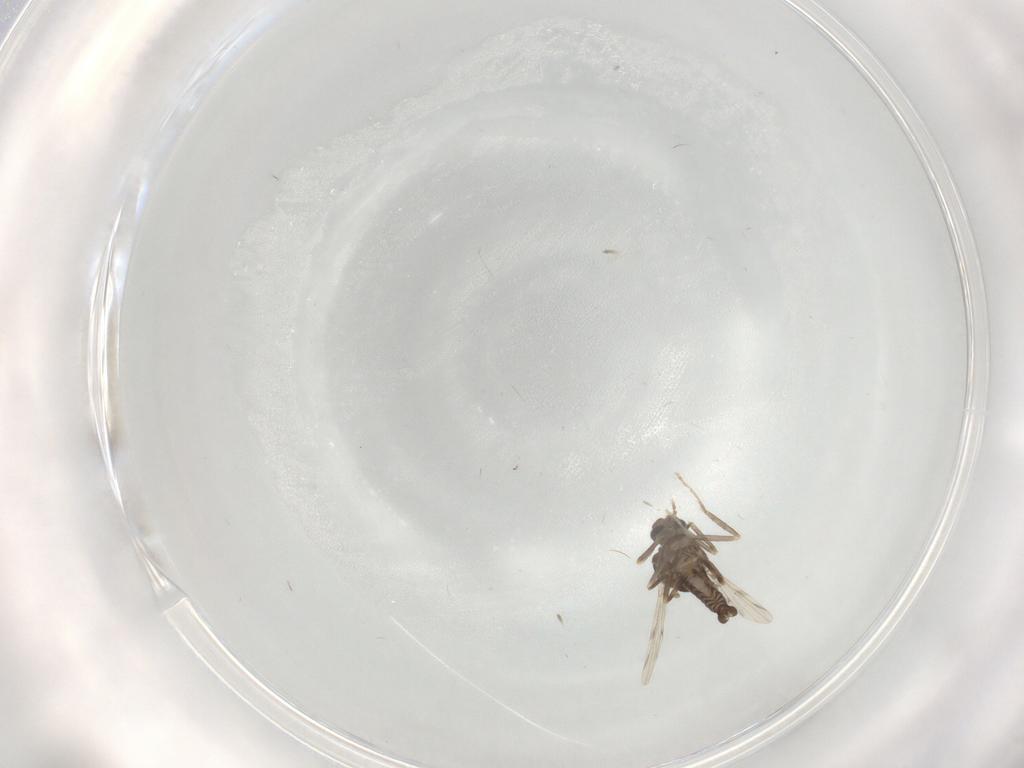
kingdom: Animalia
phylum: Arthropoda
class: Insecta
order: Diptera
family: Ceratopogonidae
